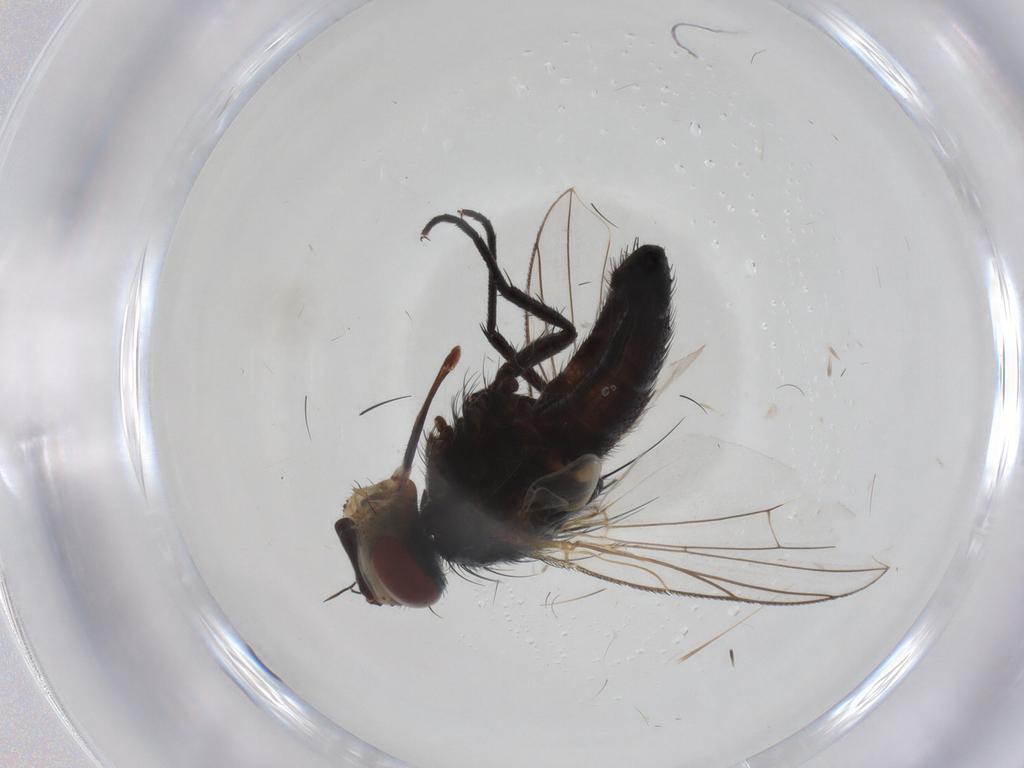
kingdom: Animalia
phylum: Arthropoda
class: Insecta
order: Diptera
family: Tachinidae
